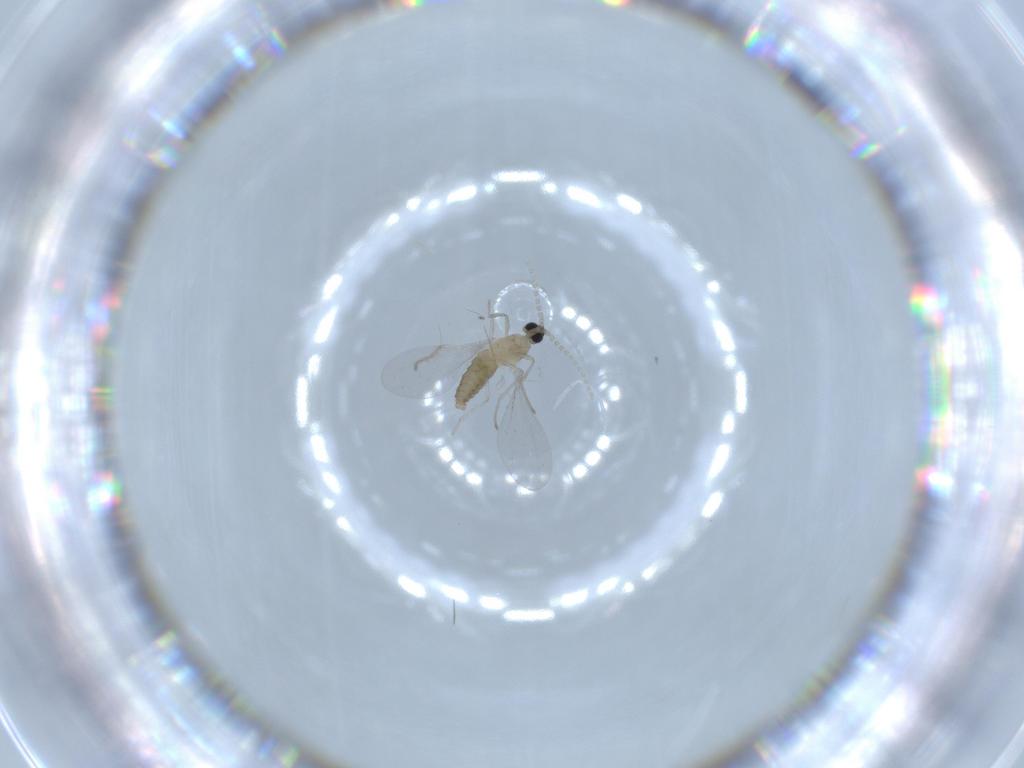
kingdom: Animalia
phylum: Arthropoda
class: Insecta
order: Diptera
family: Cecidomyiidae
